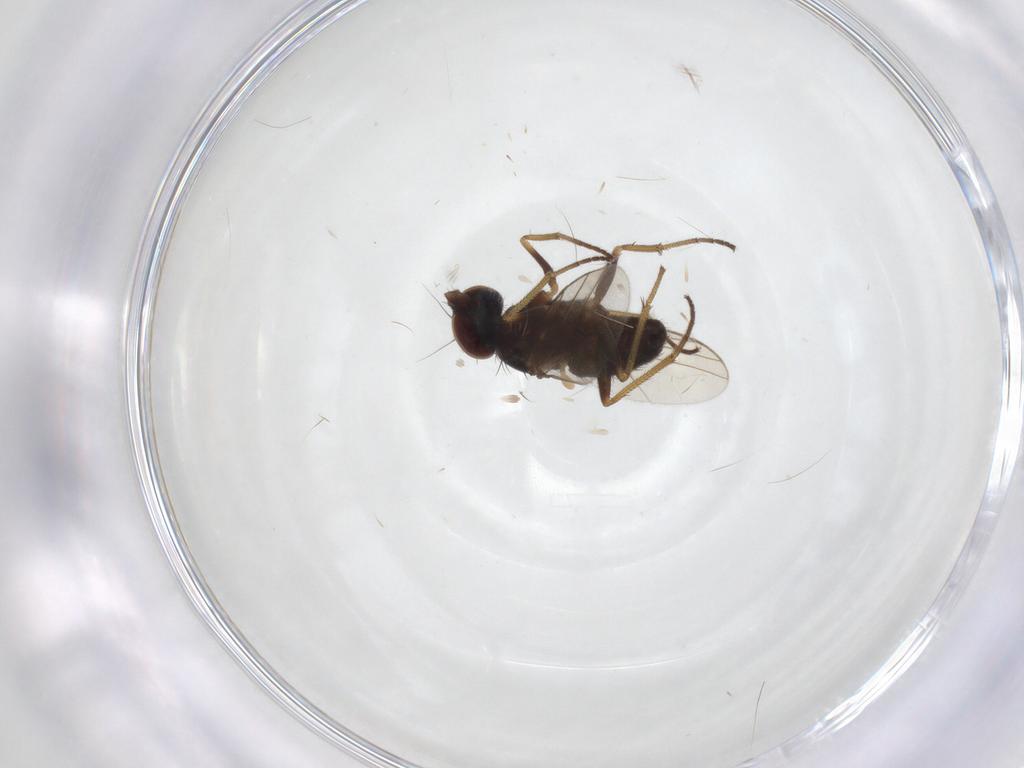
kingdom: Animalia
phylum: Arthropoda
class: Insecta
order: Diptera
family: Dolichopodidae
